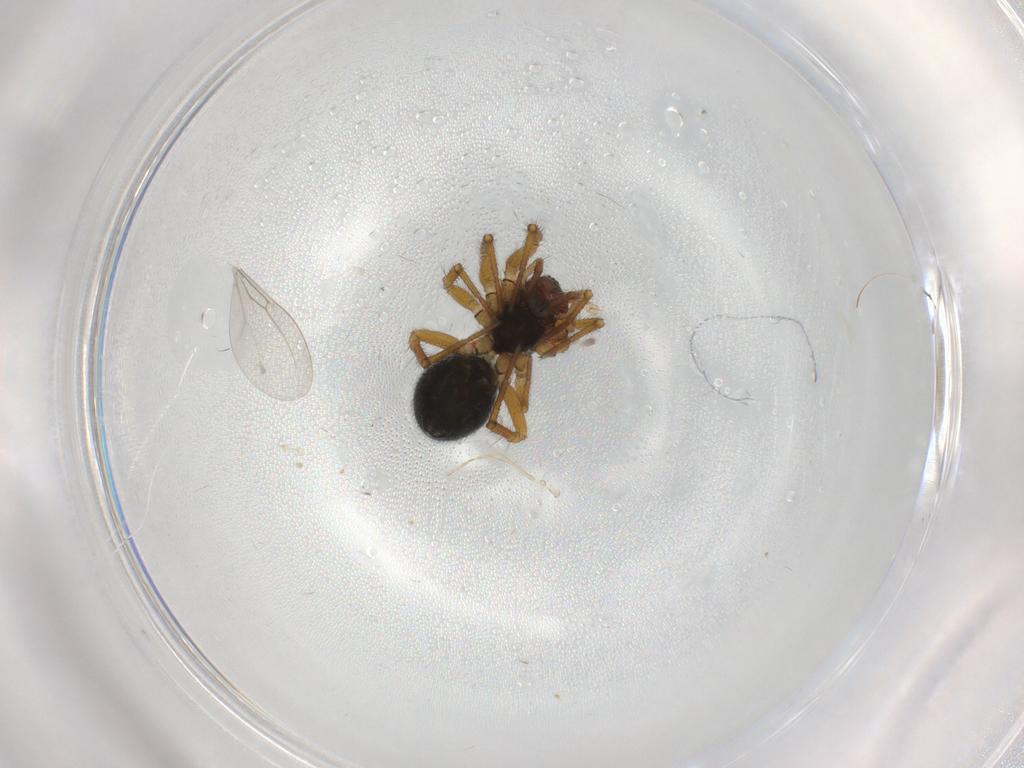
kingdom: Animalia
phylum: Arthropoda
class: Arachnida
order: Araneae
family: Linyphiidae
